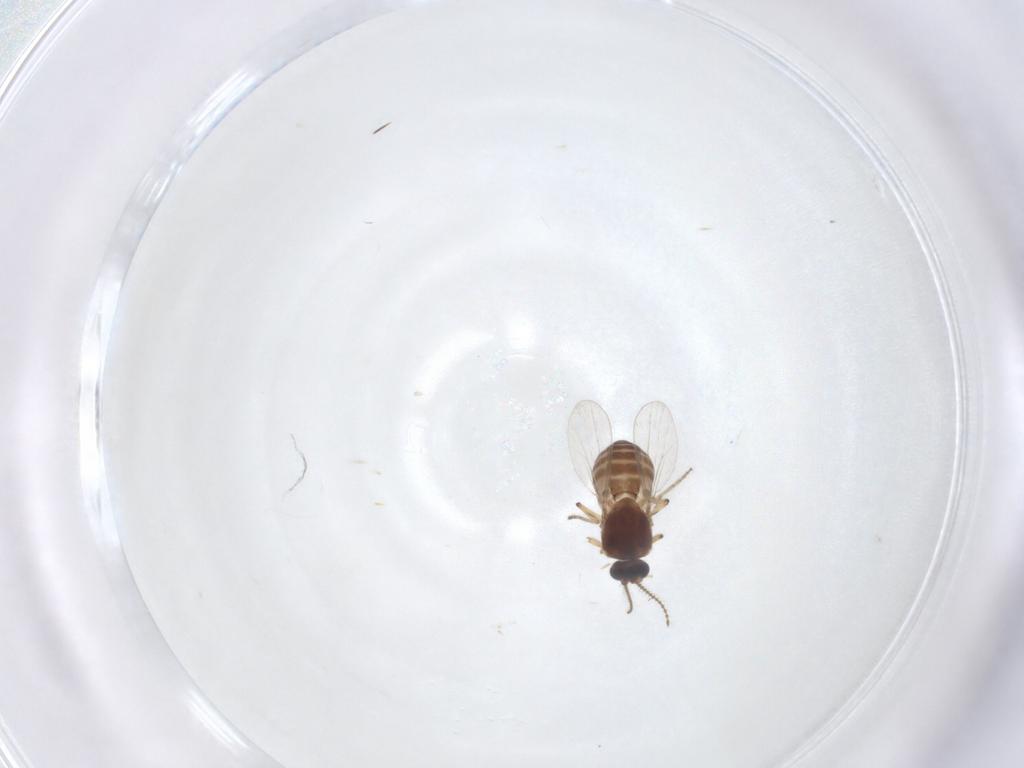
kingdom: Animalia
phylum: Arthropoda
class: Insecta
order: Diptera
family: Ceratopogonidae
